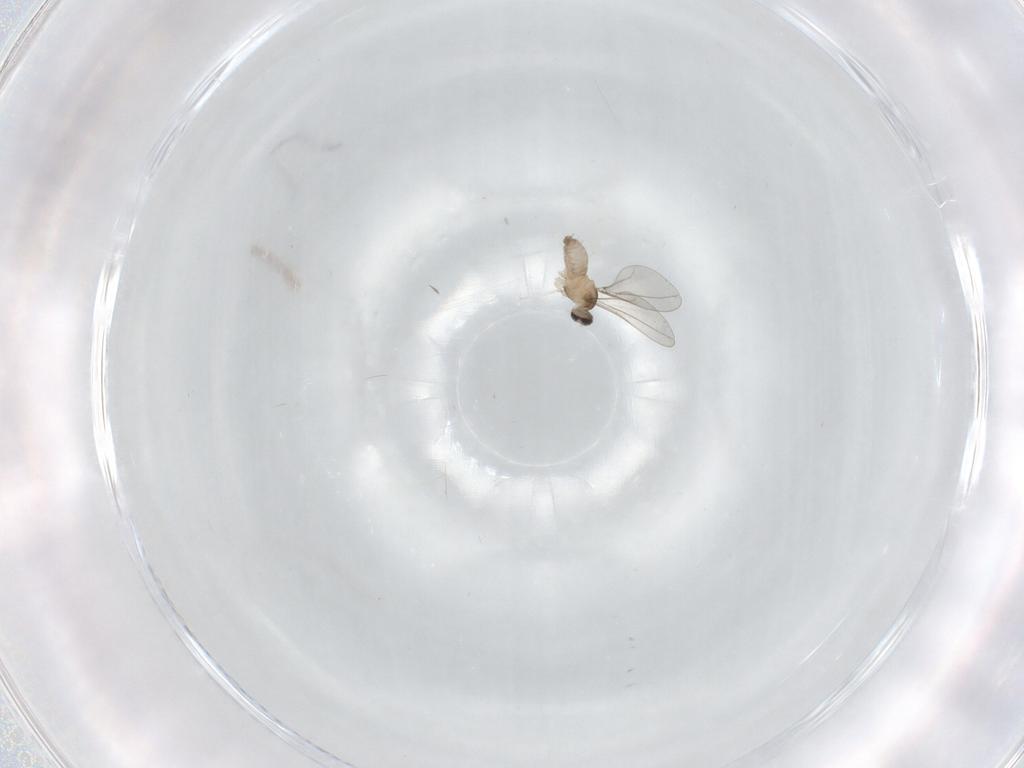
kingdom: Animalia
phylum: Arthropoda
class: Insecta
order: Diptera
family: Cecidomyiidae
